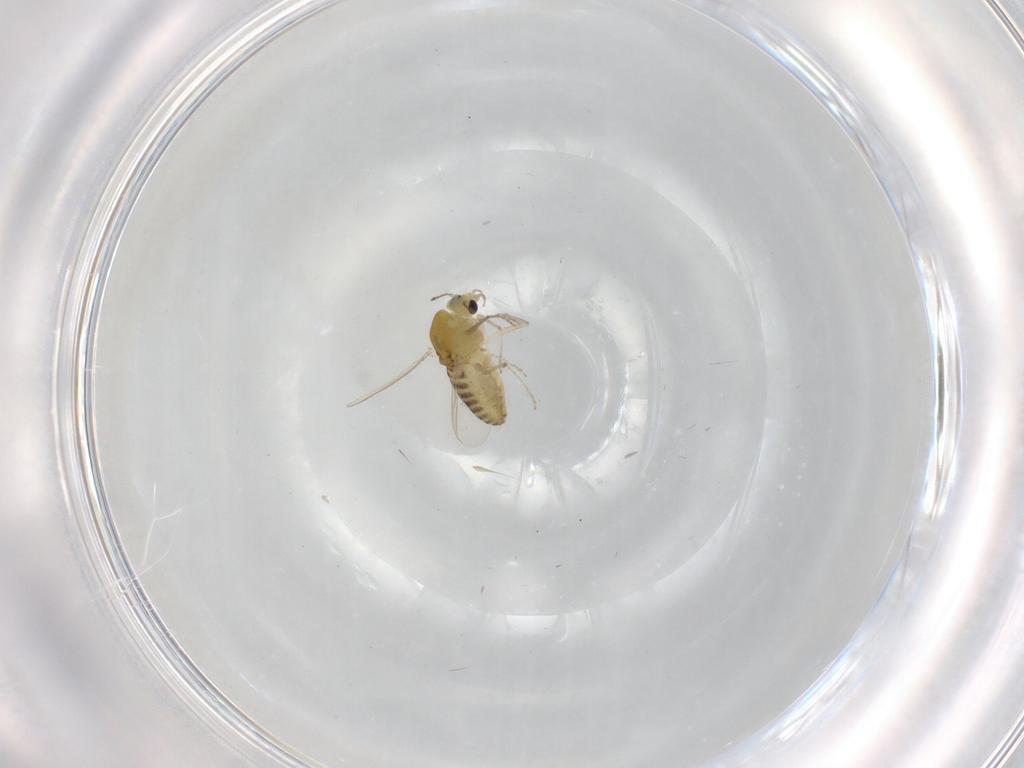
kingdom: Animalia
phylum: Arthropoda
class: Insecta
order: Diptera
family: Chironomidae
